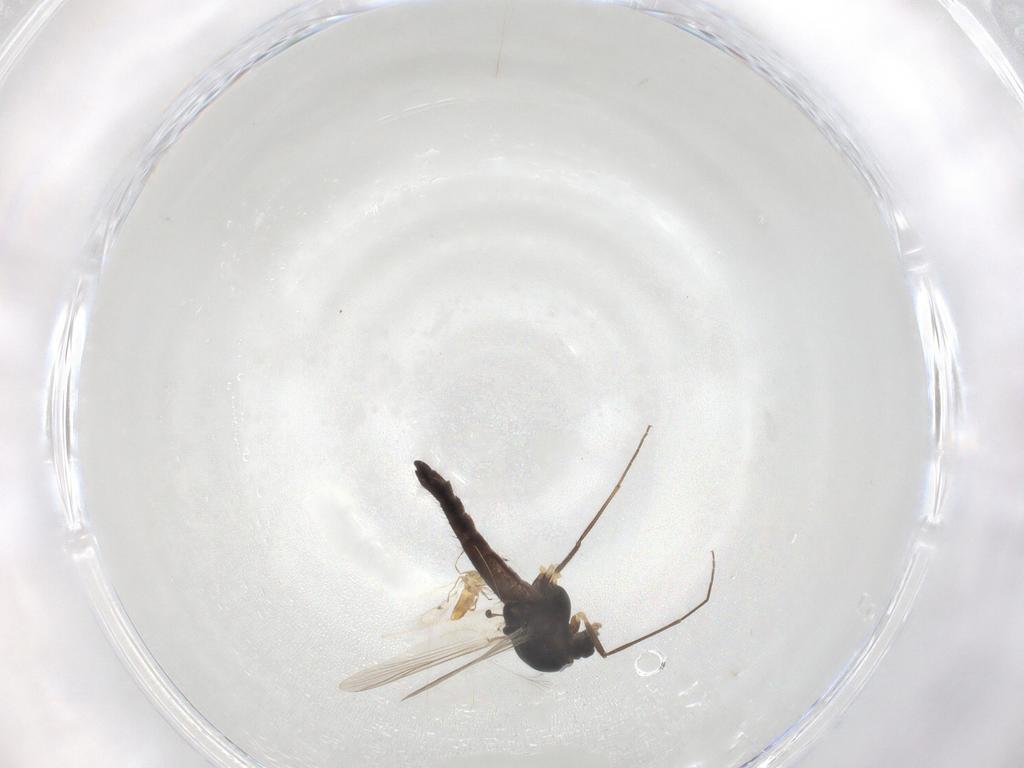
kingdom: Animalia
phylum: Arthropoda
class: Insecta
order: Diptera
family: Chironomidae
